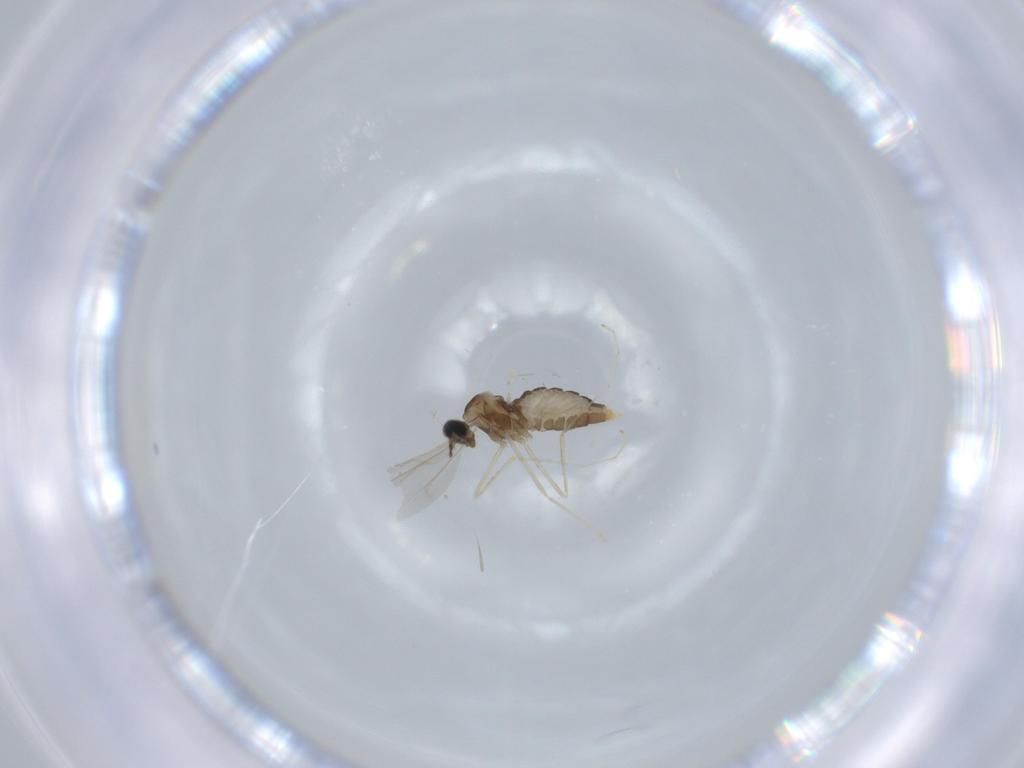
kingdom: Animalia
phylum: Arthropoda
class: Insecta
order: Diptera
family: Cecidomyiidae
